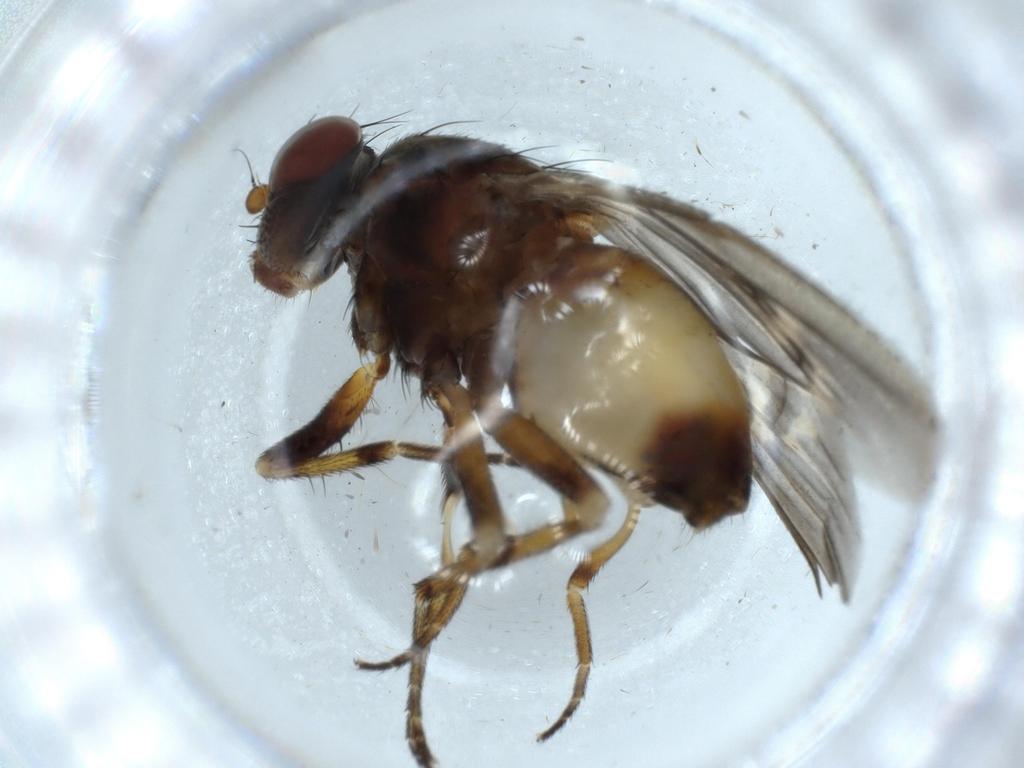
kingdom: Animalia
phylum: Arthropoda
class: Insecta
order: Diptera
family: Odiniidae
